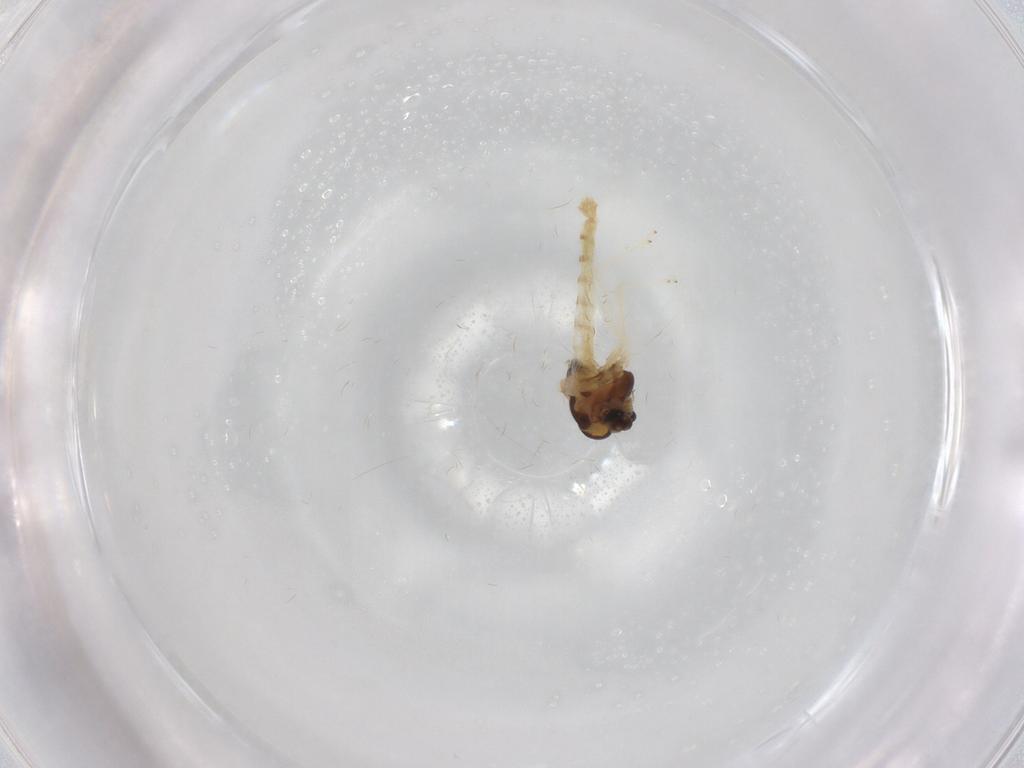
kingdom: Animalia
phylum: Arthropoda
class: Insecta
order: Diptera
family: Chironomidae
